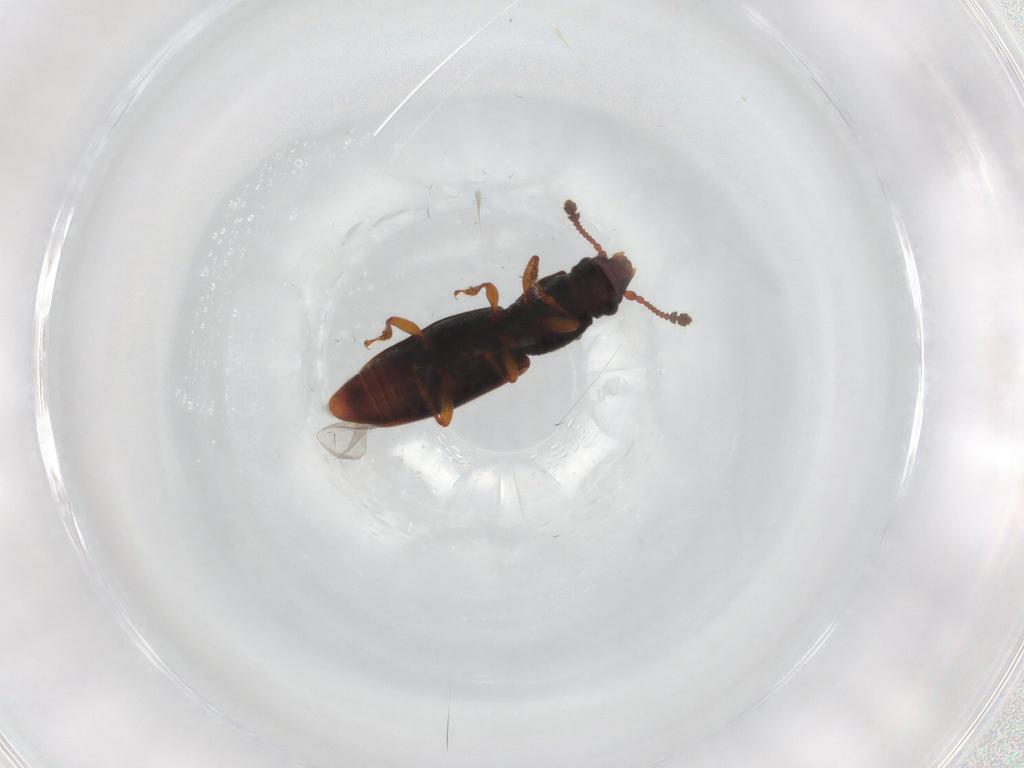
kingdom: Animalia
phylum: Arthropoda
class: Insecta
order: Coleoptera
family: Monotomidae
